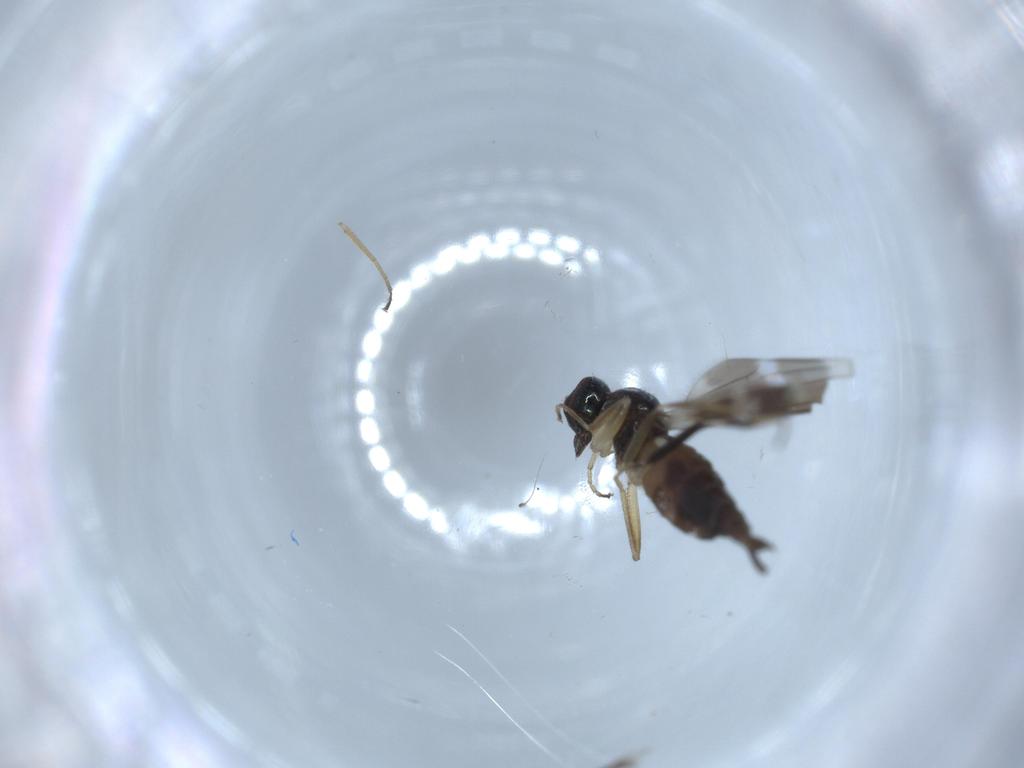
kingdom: Animalia
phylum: Arthropoda
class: Insecta
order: Diptera
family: Hybotidae
